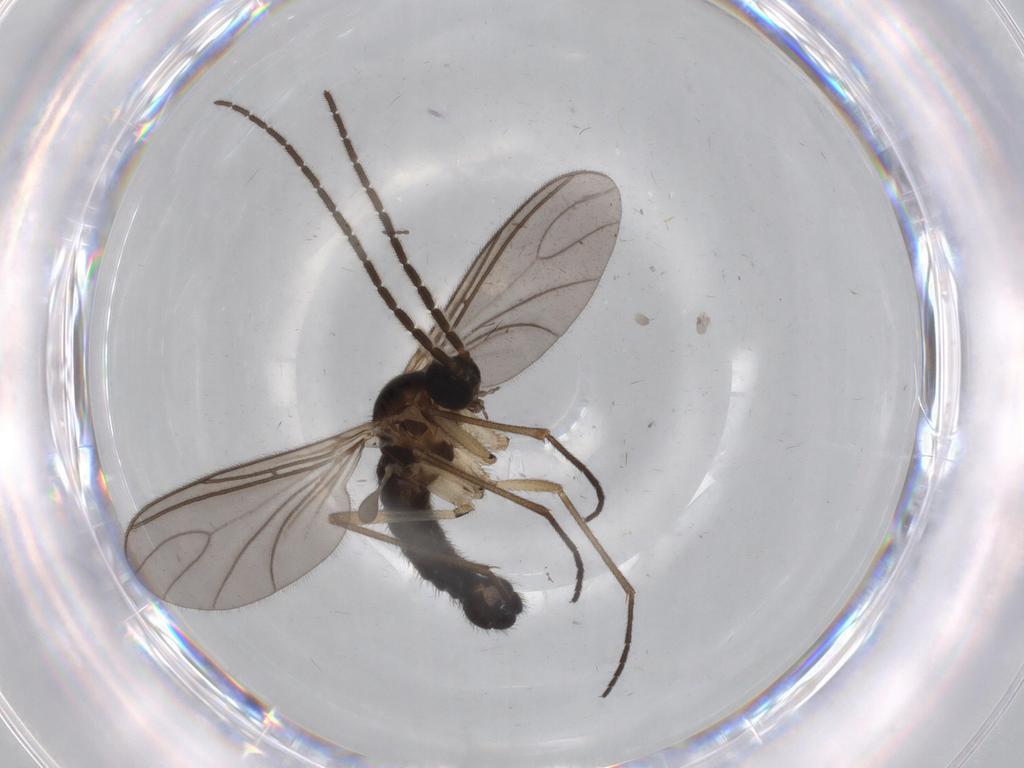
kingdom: Animalia
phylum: Arthropoda
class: Insecta
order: Diptera
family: Sciaridae
